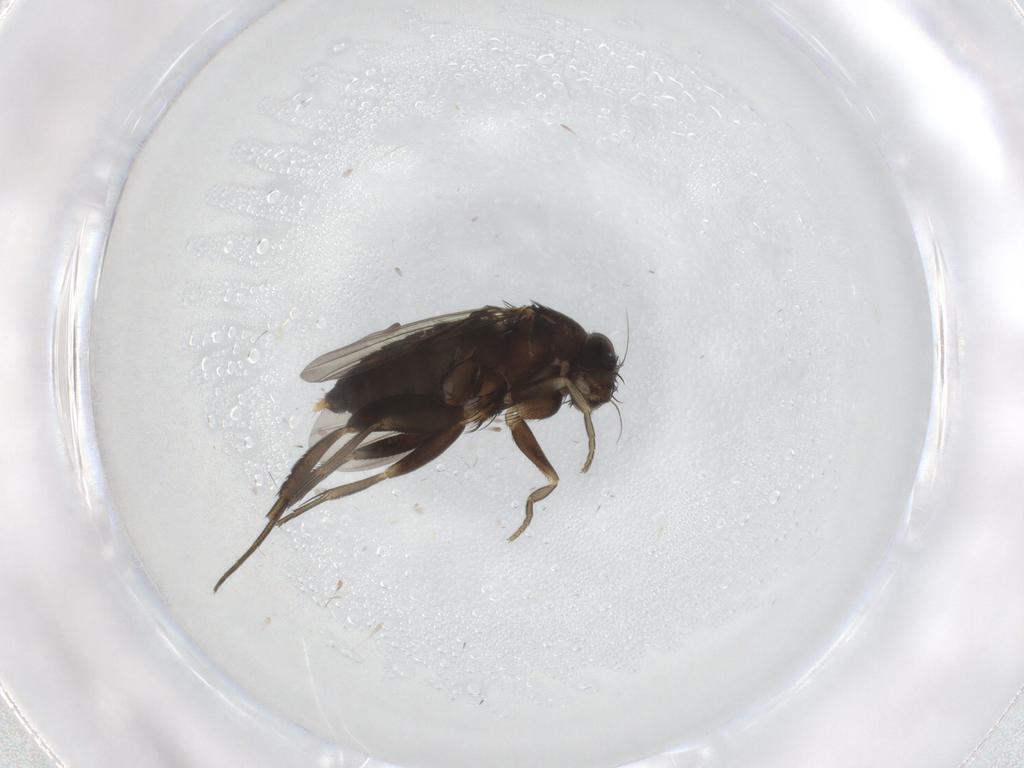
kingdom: Animalia
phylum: Arthropoda
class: Insecta
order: Diptera
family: Phoridae
